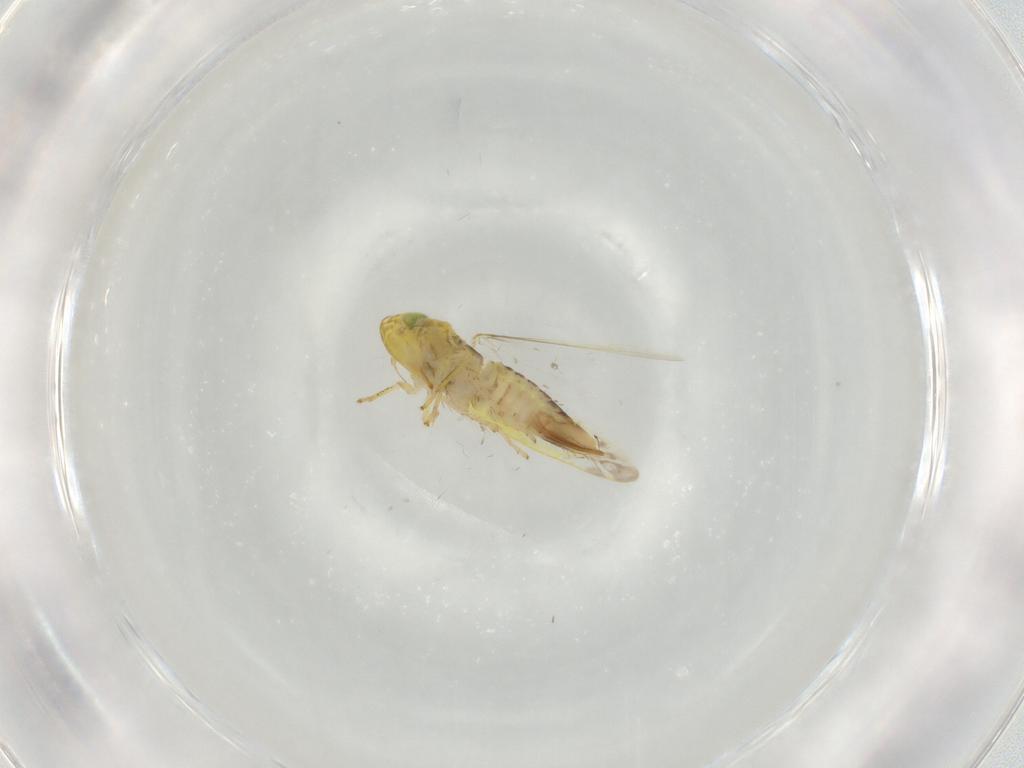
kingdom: Animalia
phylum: Arthropoda
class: Insecta
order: Hemiptera
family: Cicadellidae
